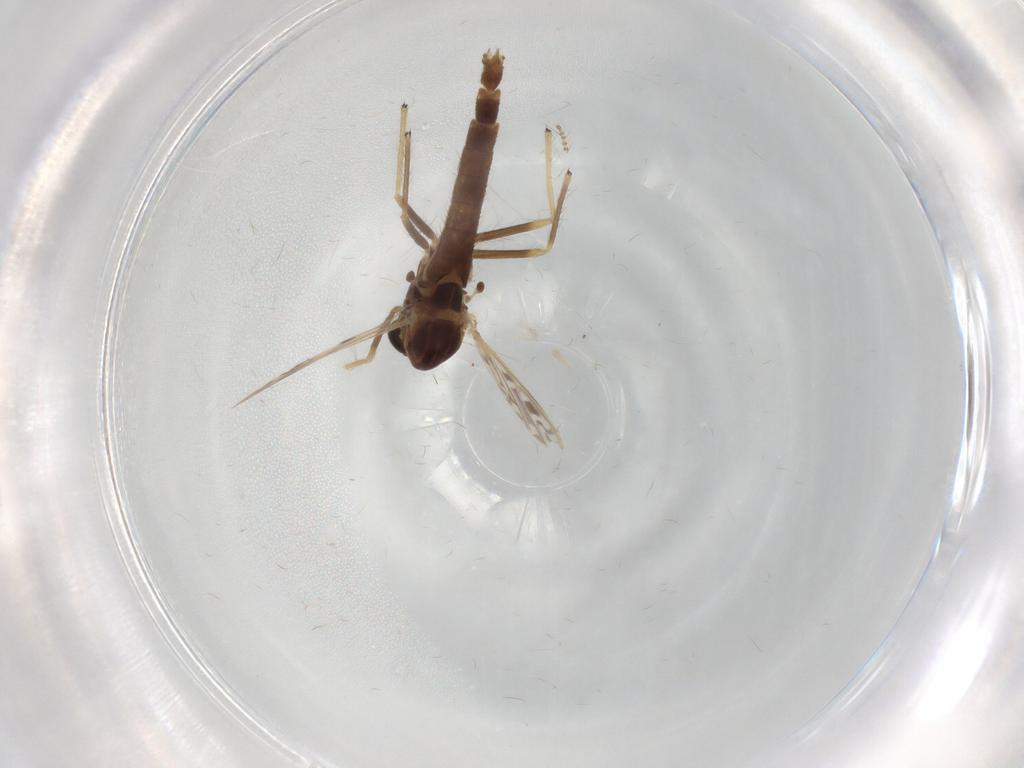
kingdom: Animalia
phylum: Arthropoda
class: Insecta
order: Diptera
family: Chironomidae
